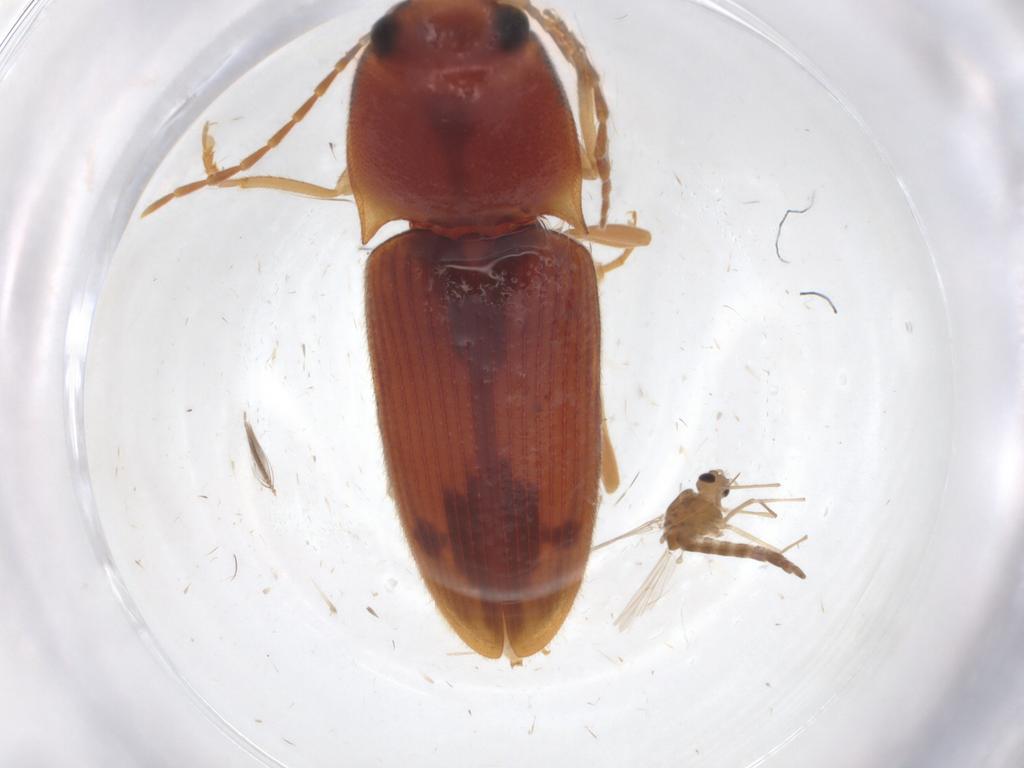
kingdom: Animalia
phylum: Arthropoda
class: Insecta
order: Diptera
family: Chironomidae
